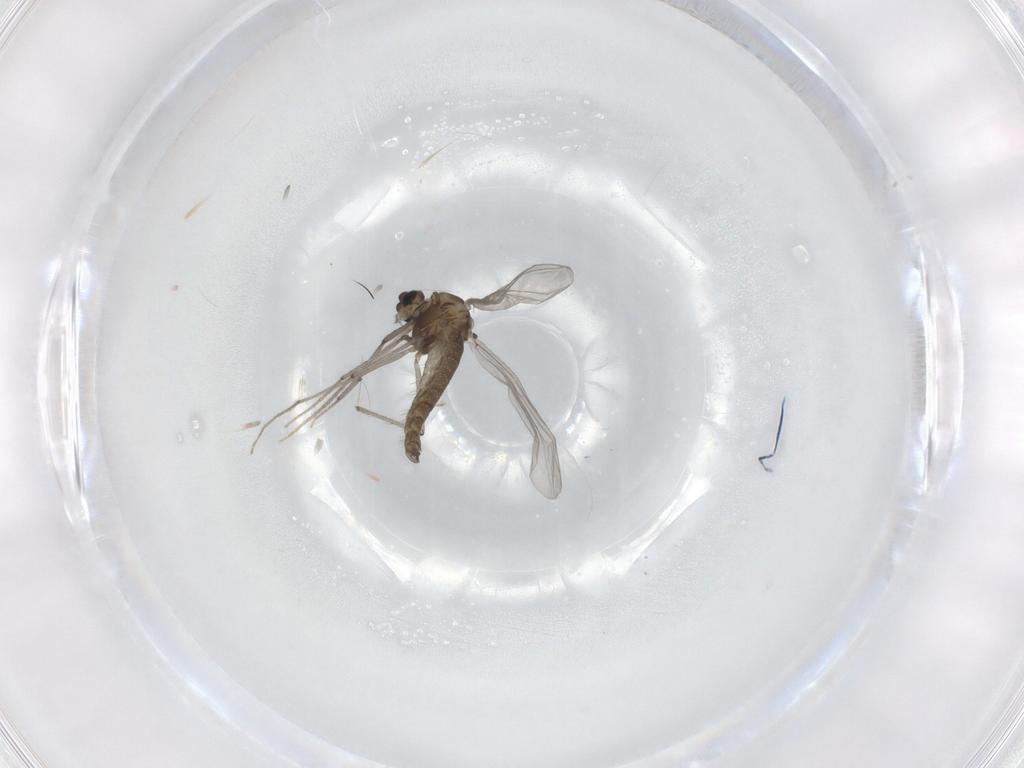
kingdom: Animalia
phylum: Arthropoda
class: Insecta
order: Diptera
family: Chironomidae
